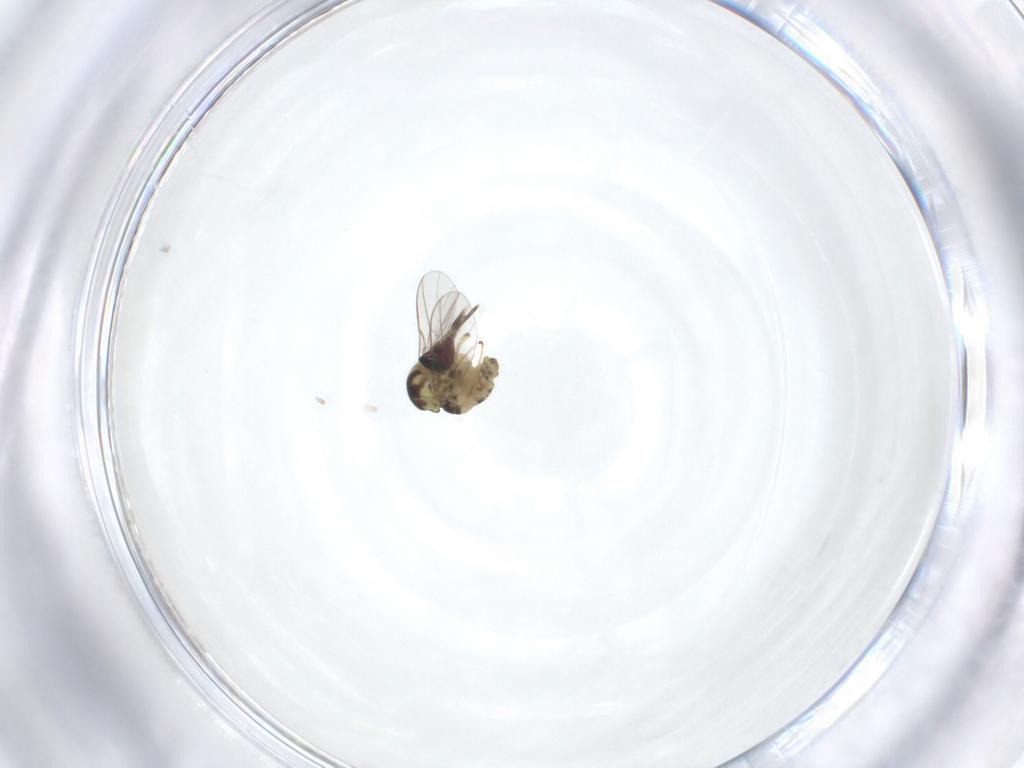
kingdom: Animalia
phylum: Arthropoda
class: Insecta
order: Diptera
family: Mythicomyiidae
